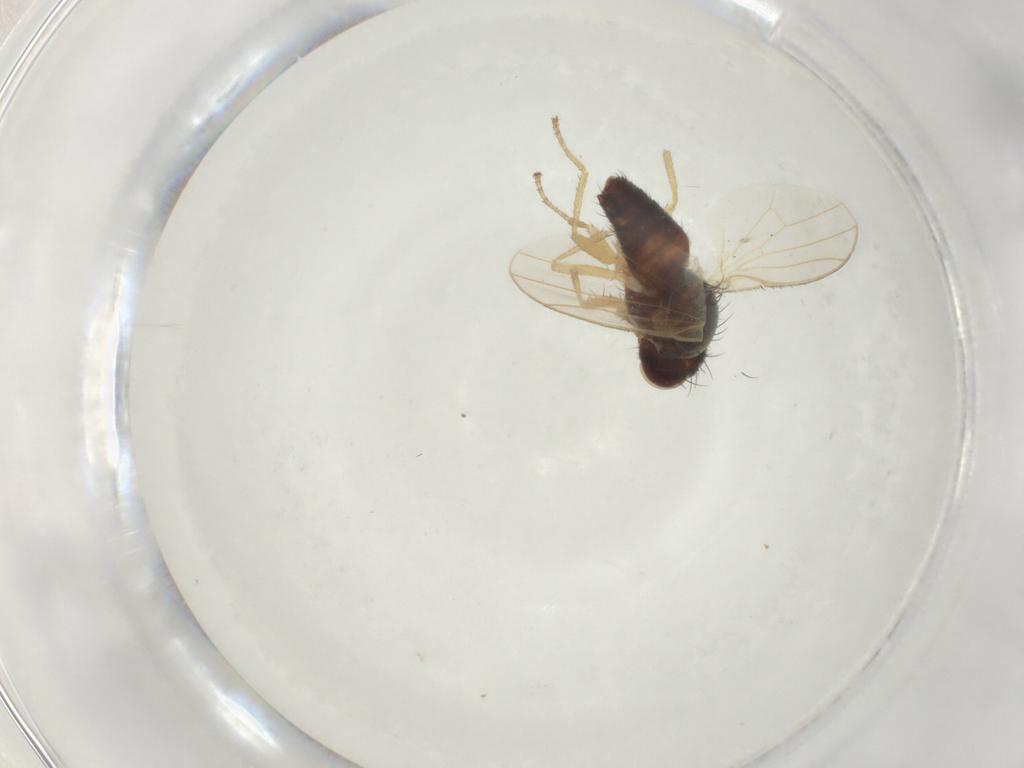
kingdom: Animalia
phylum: Arthropoda
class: Insecta
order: Diptera
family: Heleomyzidae
